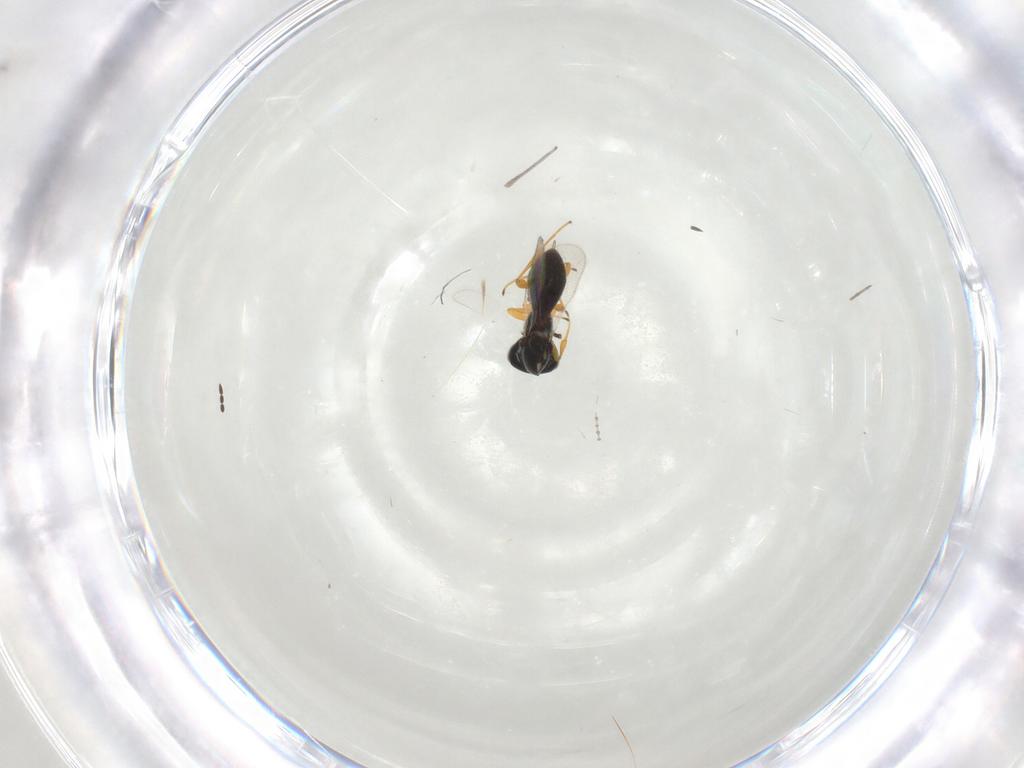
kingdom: Animalia
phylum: Arthropoda
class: Insecta
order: Hymenoptera
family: Platygastridae
